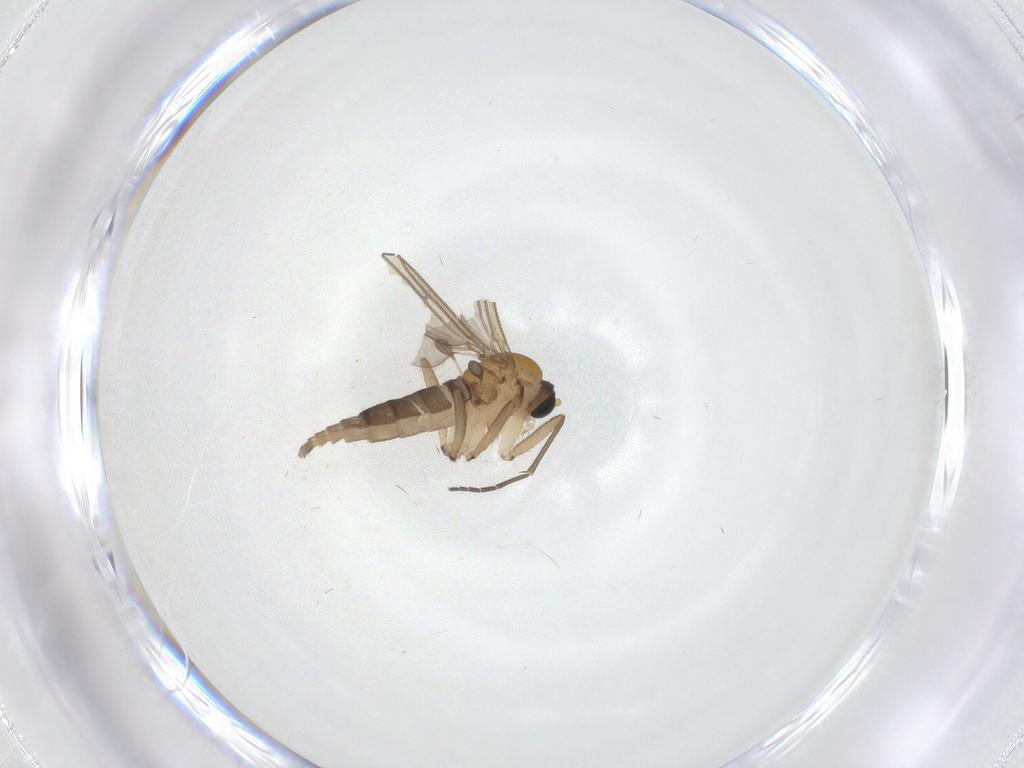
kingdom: Animalia
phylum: Arthropoda
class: Insecta
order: Diptera
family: Sciaridae
